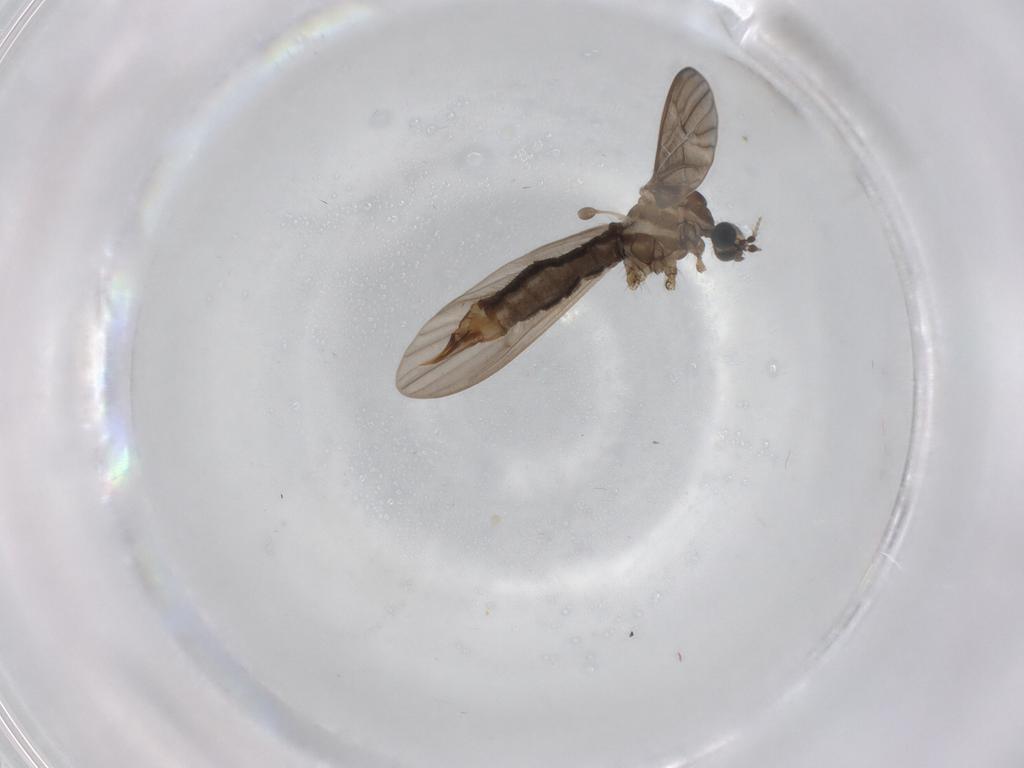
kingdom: Animalia
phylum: Arthropoda
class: Insecta
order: Diptera
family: Limoniidae
